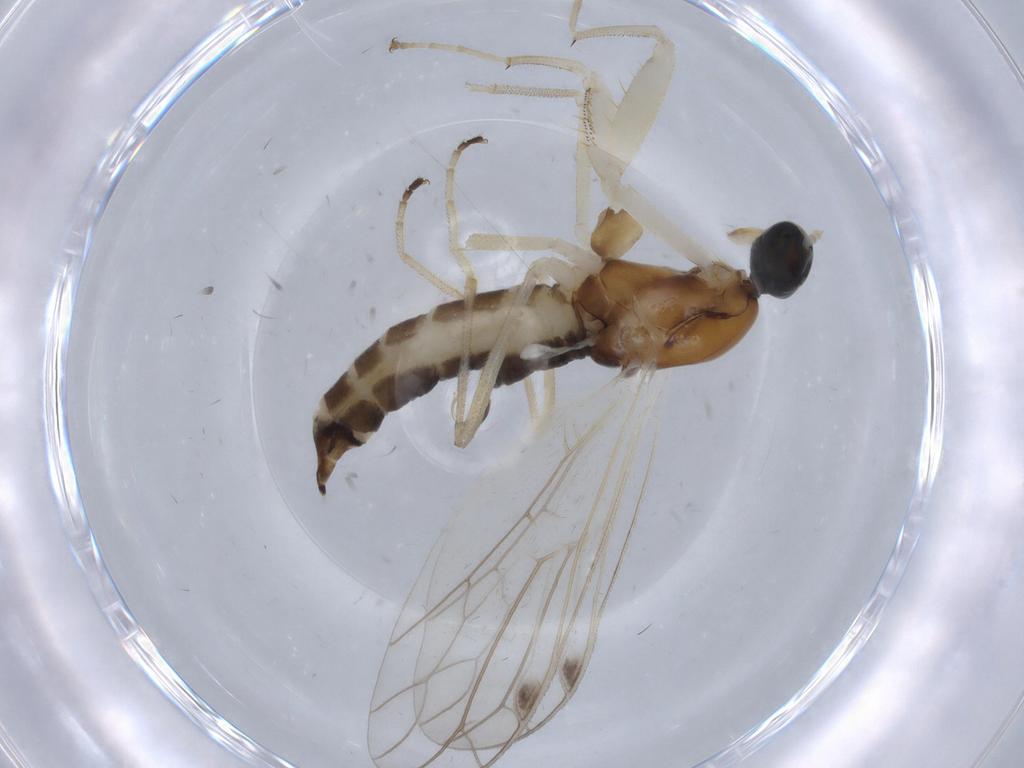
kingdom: Animalia
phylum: Arthropoda
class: Insecta
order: Diptera
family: Empididae
